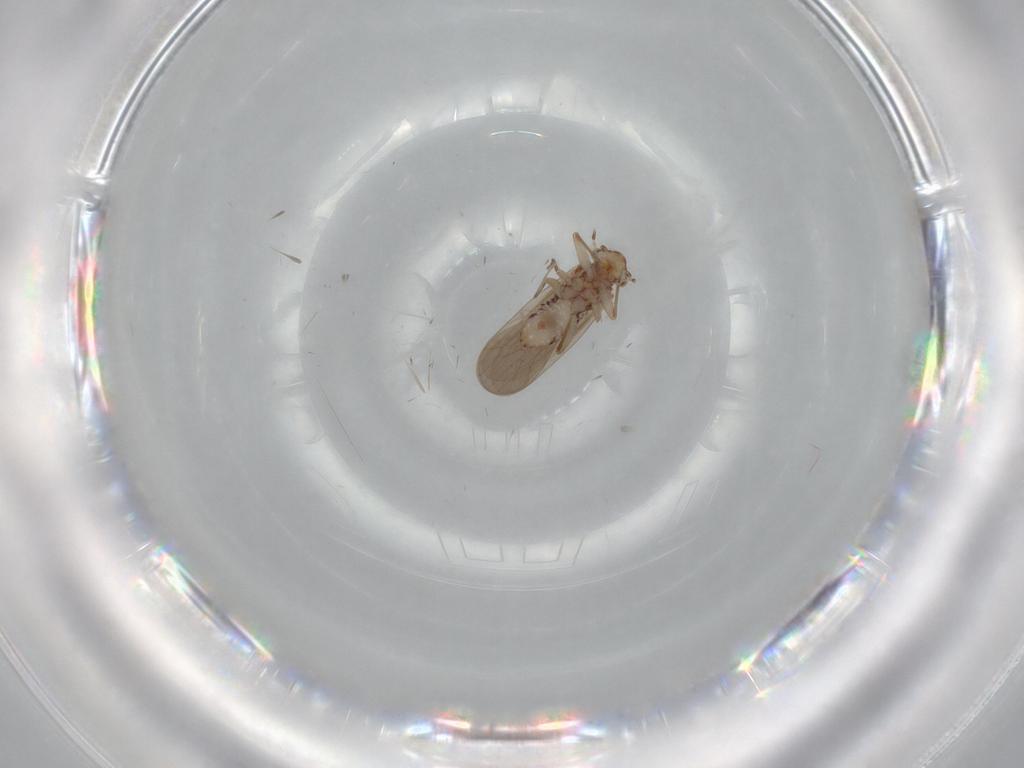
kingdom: Animalia
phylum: Arthropoda
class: Insecta
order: Psocodea
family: Lepidopsocidae
